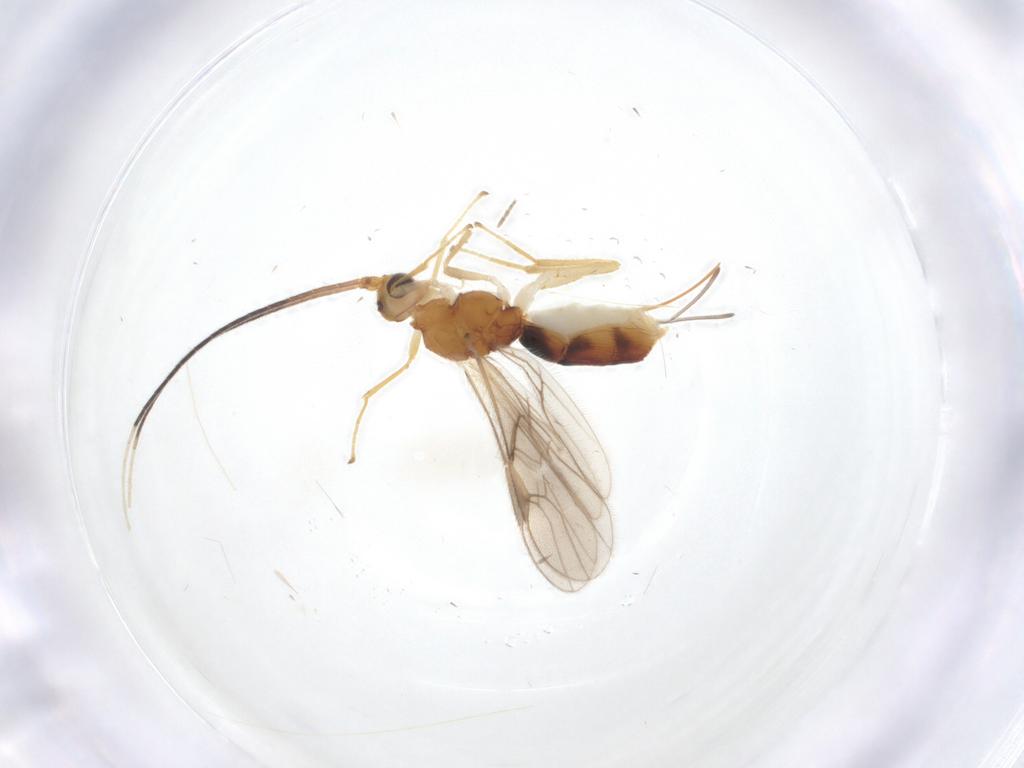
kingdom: Animalia
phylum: Arthropoda
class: Insecta
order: Hymenoptera
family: Braconidae
